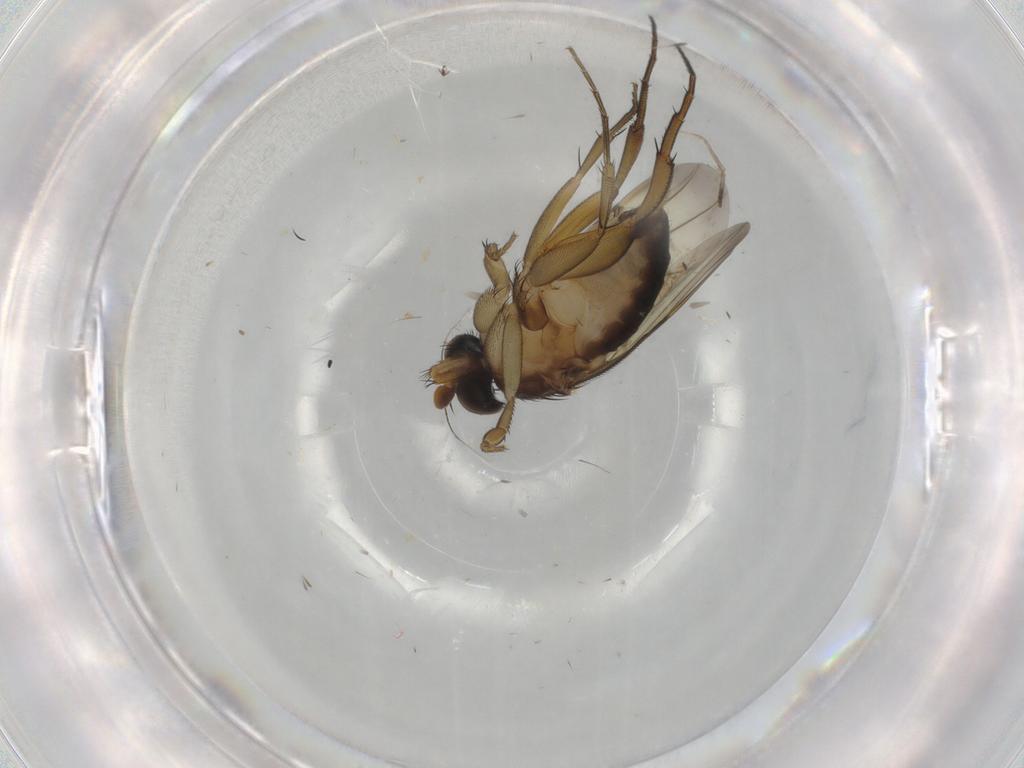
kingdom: Animalia
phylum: Arthropoda
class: Insecta
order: Diptera
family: Phoridae
